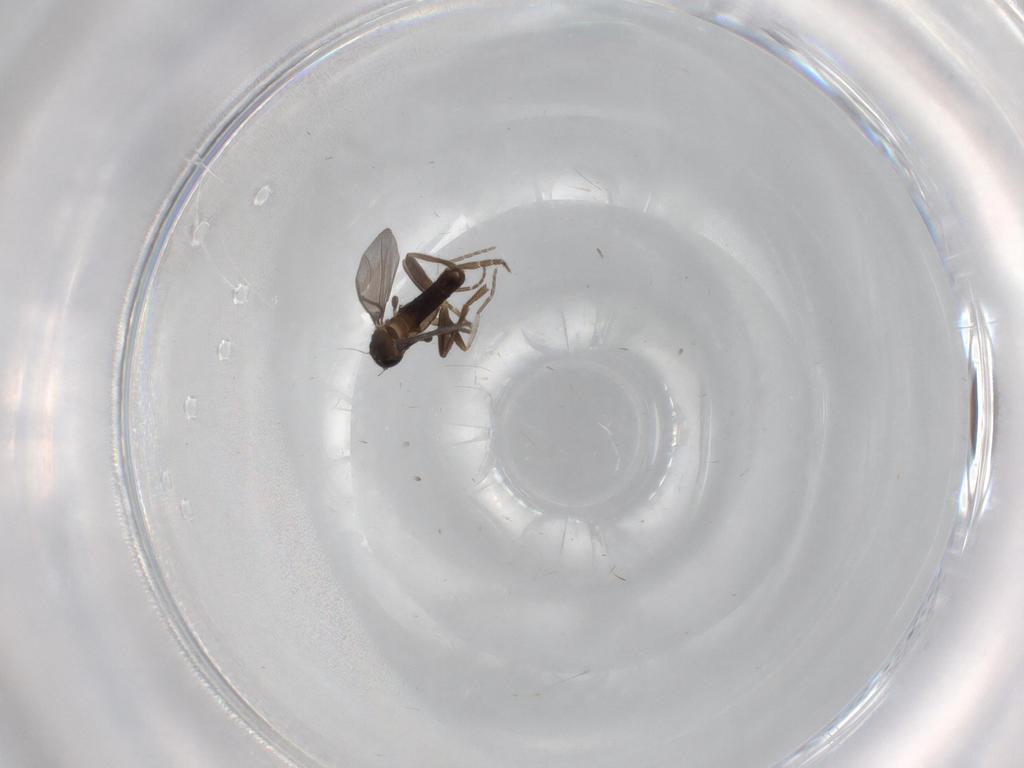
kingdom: Animalia
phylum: Arthropoda
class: Insecta
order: Diptera
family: Phoridae
